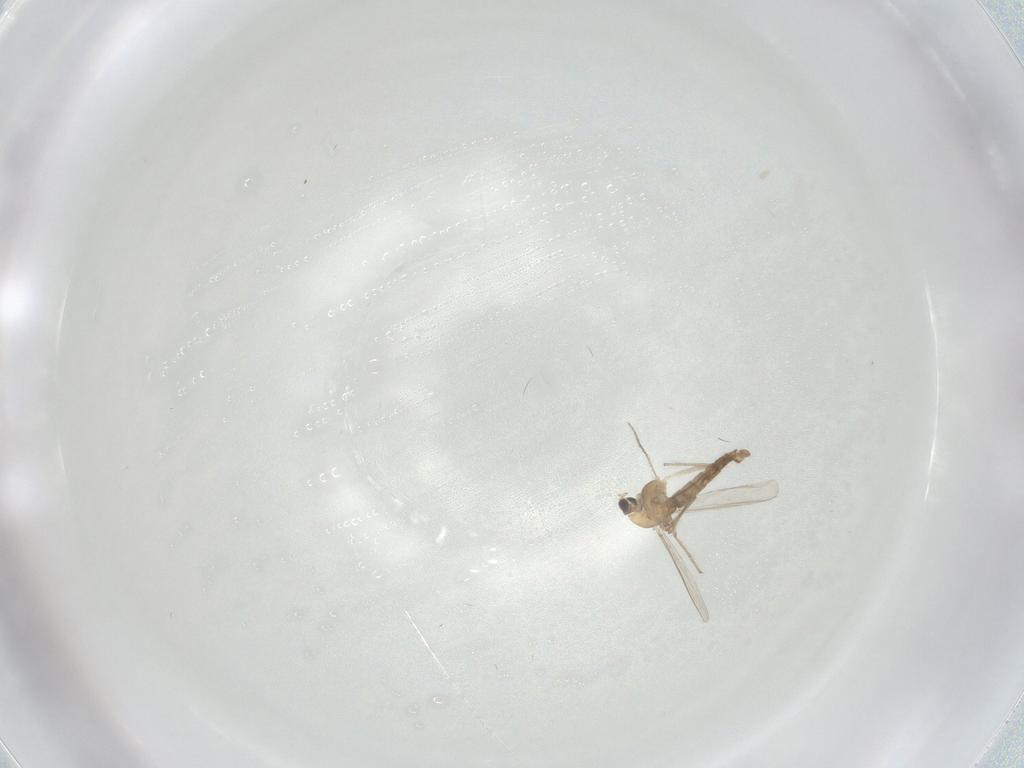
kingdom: Animalia
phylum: Arthropoda
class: Insecta
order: Diptera
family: Chironomidae
